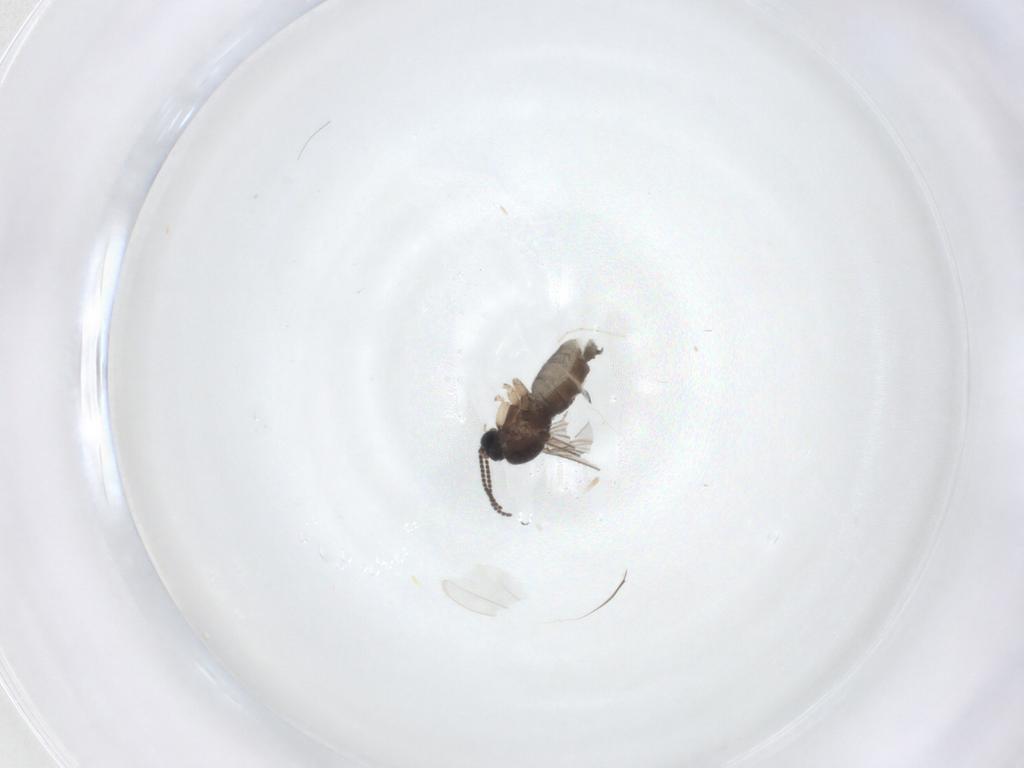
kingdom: Animalia
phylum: Arthropoda
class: Insecta
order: Diptera
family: Sciaridae
